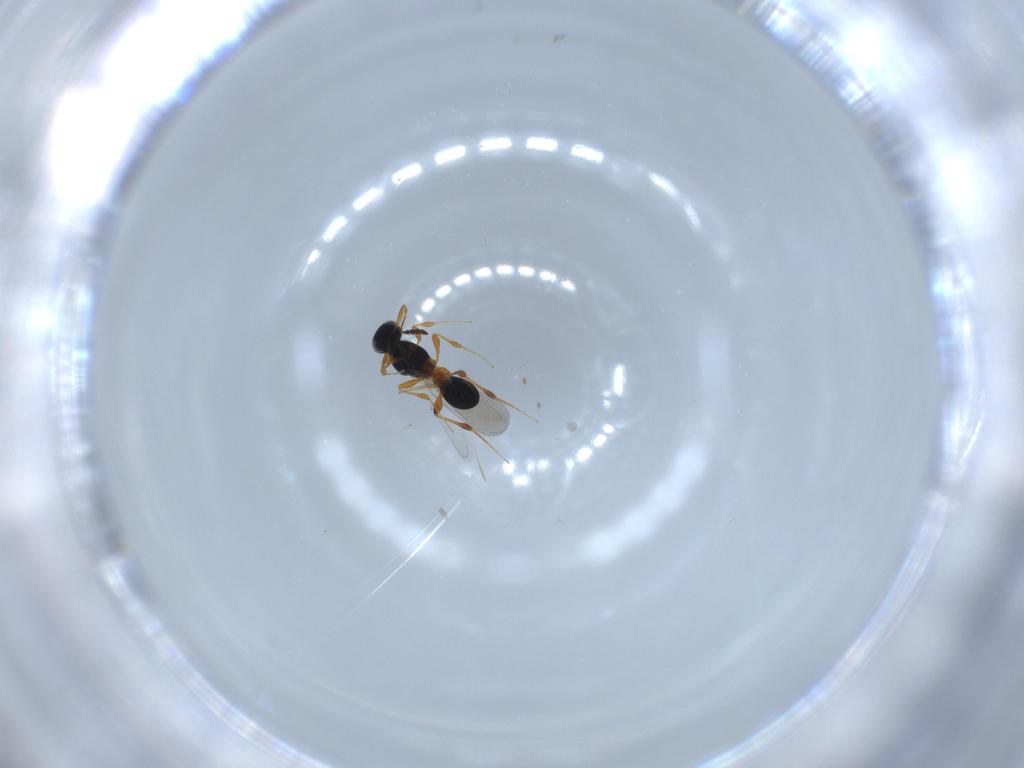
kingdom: Animalia
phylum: Arthropoda
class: Insecta
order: Hymenoptera
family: Platygastridae
